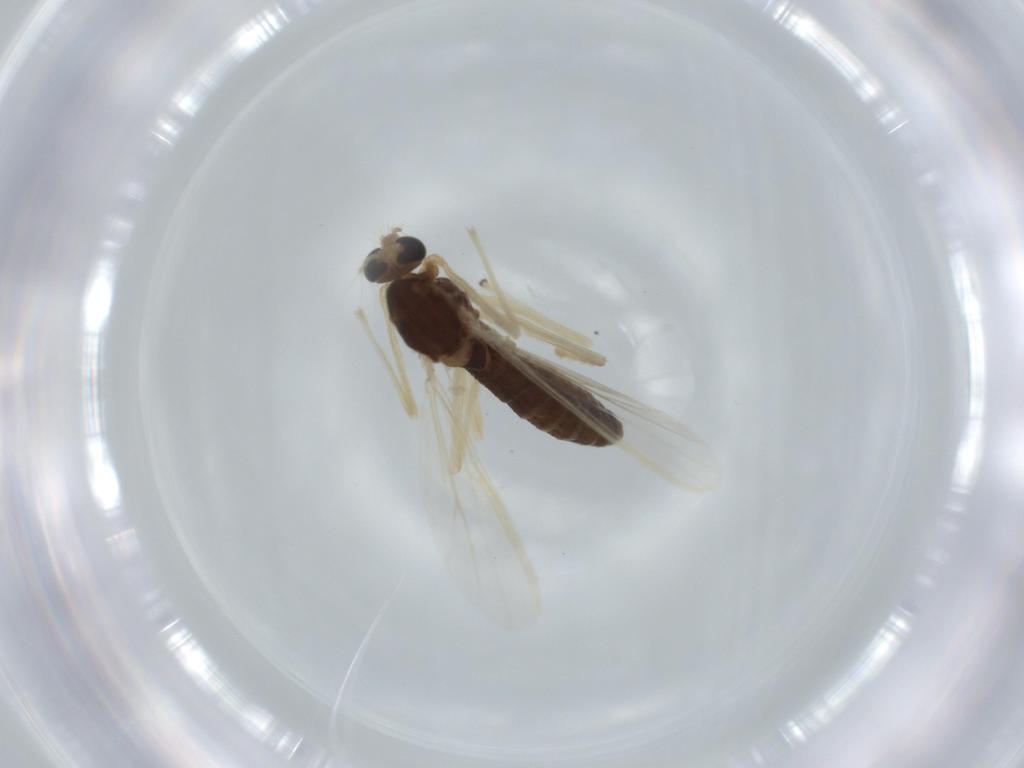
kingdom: Animalia
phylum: Arthropoda
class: Insecta
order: Diptera
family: Chironomidae
